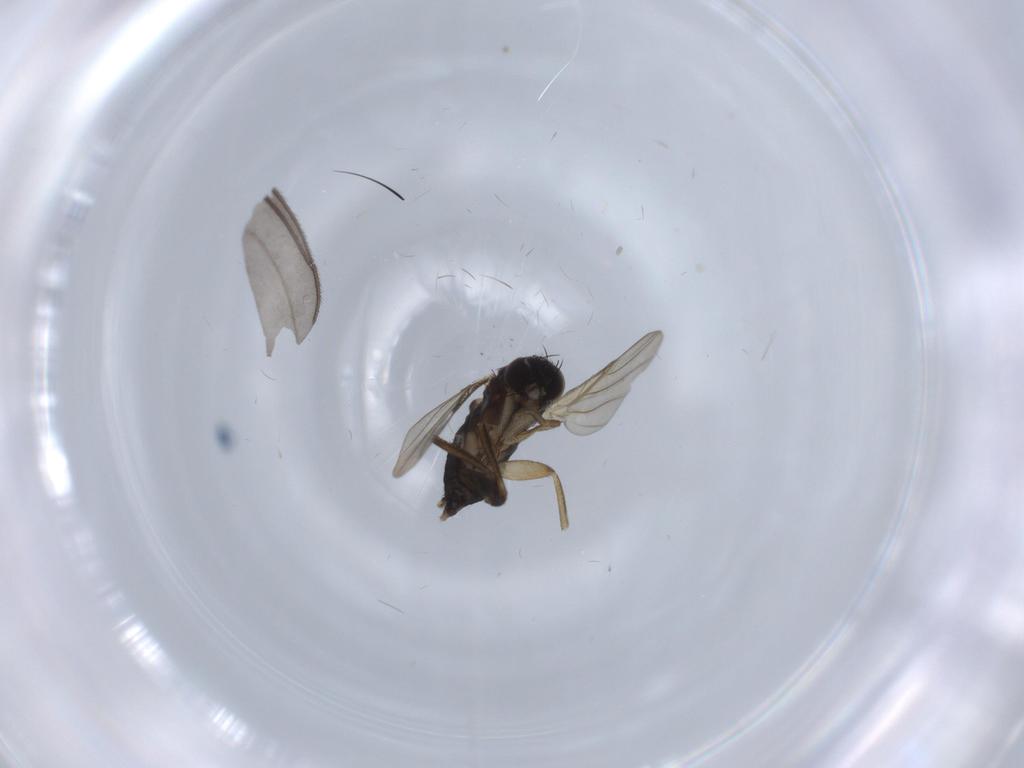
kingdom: Animalia
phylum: Arthropoda
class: Insecta
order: Diptera
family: Phoridae
